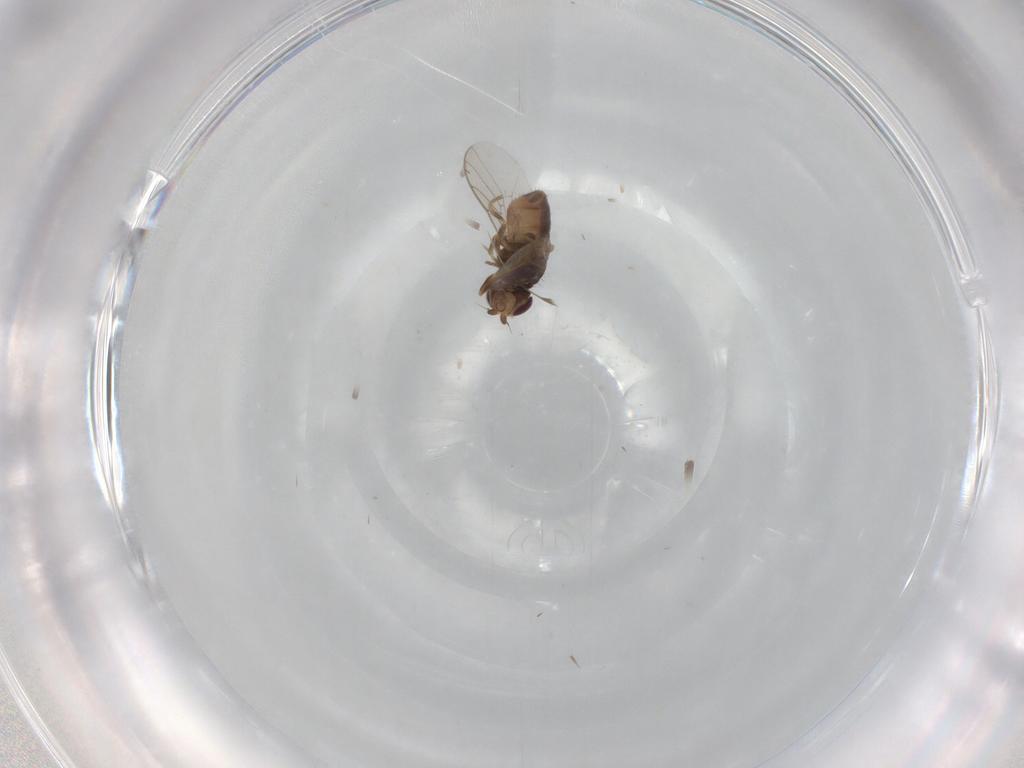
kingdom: Animalia
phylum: Arthropoda
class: Insecta
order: Diptera
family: Chloropidae
